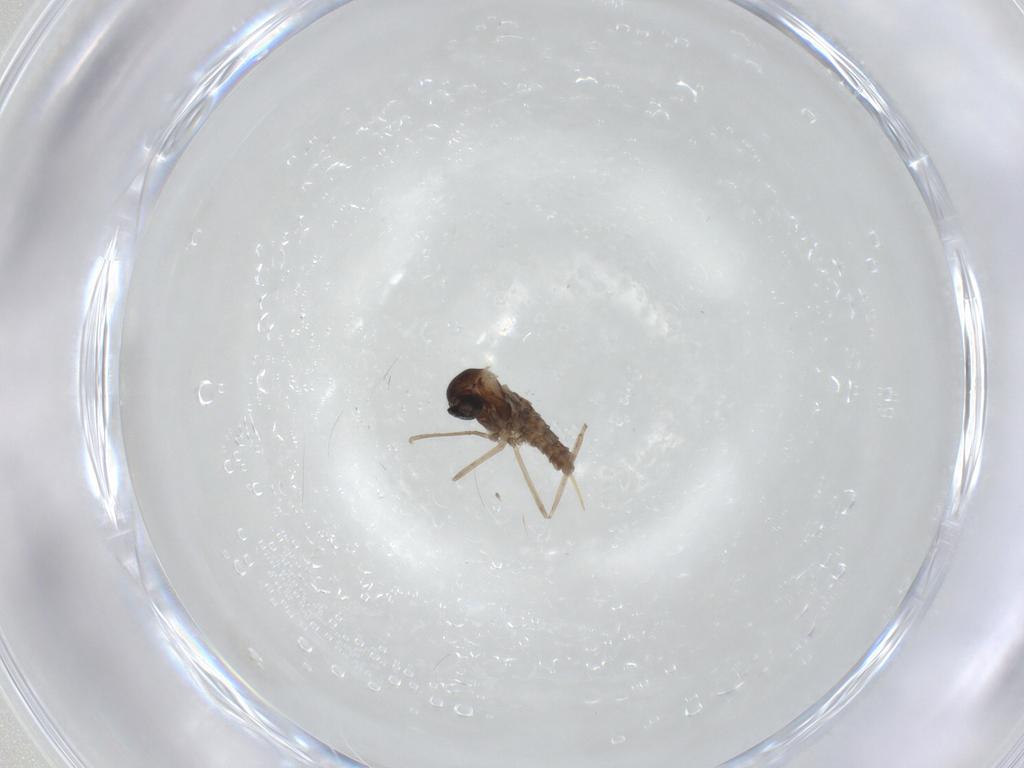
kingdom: Animalia
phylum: Arthropoda
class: Insecta
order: Diptera
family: Cecidomyiidae
